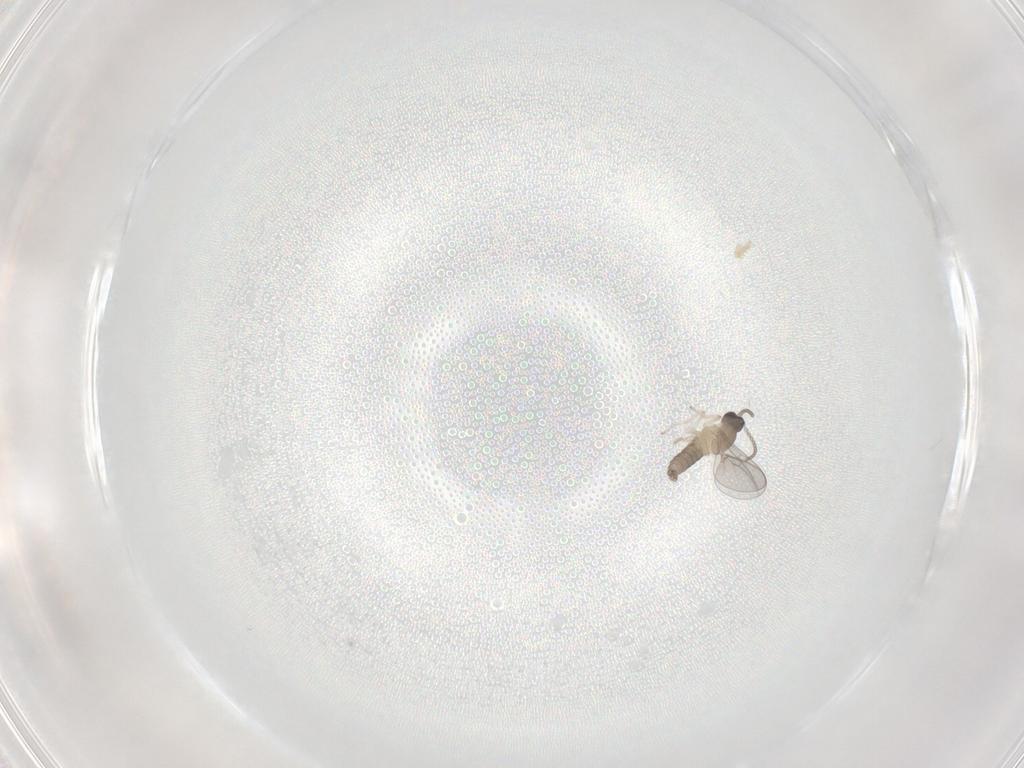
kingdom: Animalia
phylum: Arthropoda
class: Insecta
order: Diptera
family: Cecidomyiidae
